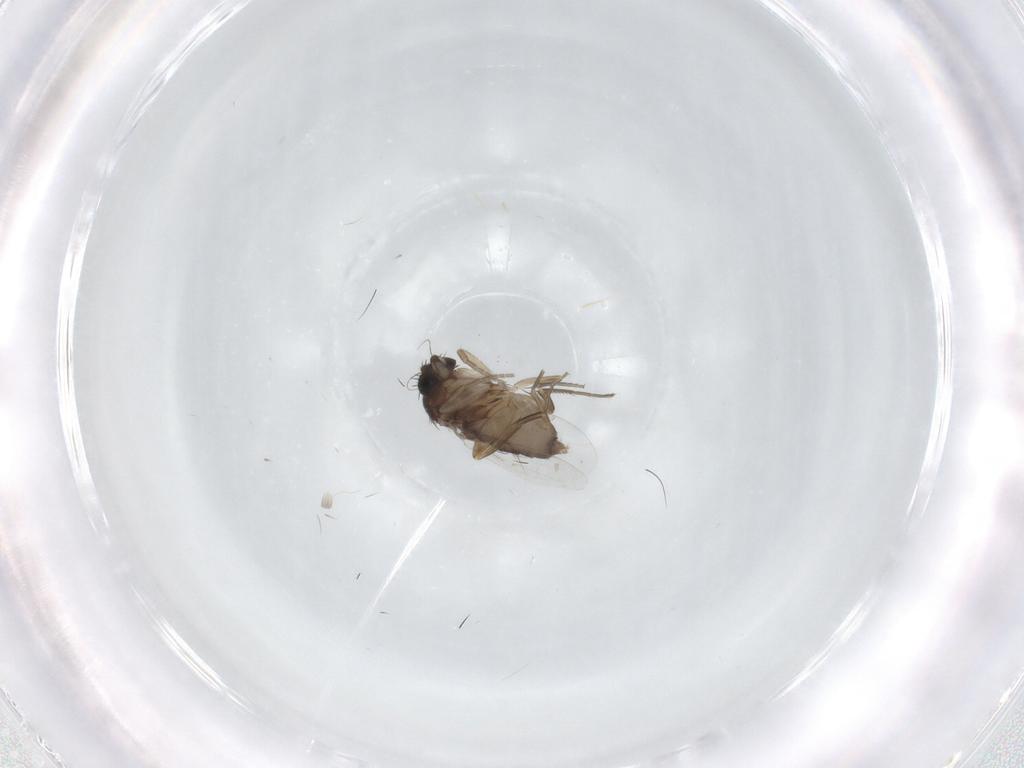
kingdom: Animalia
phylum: Arthropoda
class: Insecta
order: Diptera
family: Phoridae
